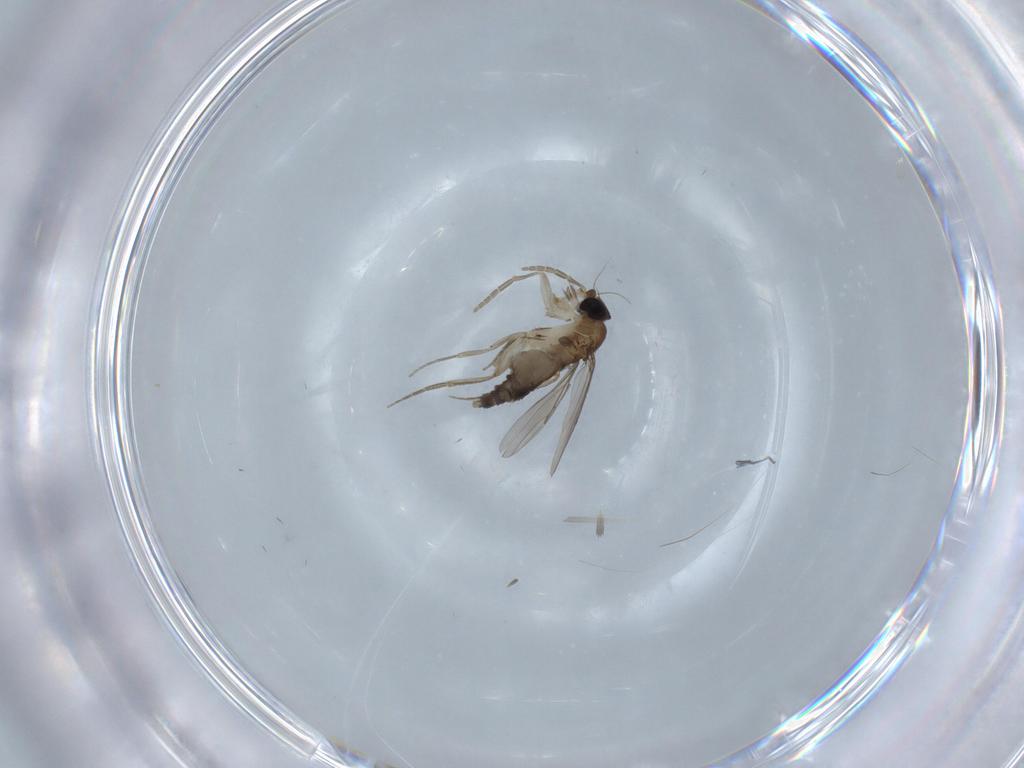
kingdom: Animalia
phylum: Arthropoda
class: Insecta
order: Diptera
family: Phoridae
